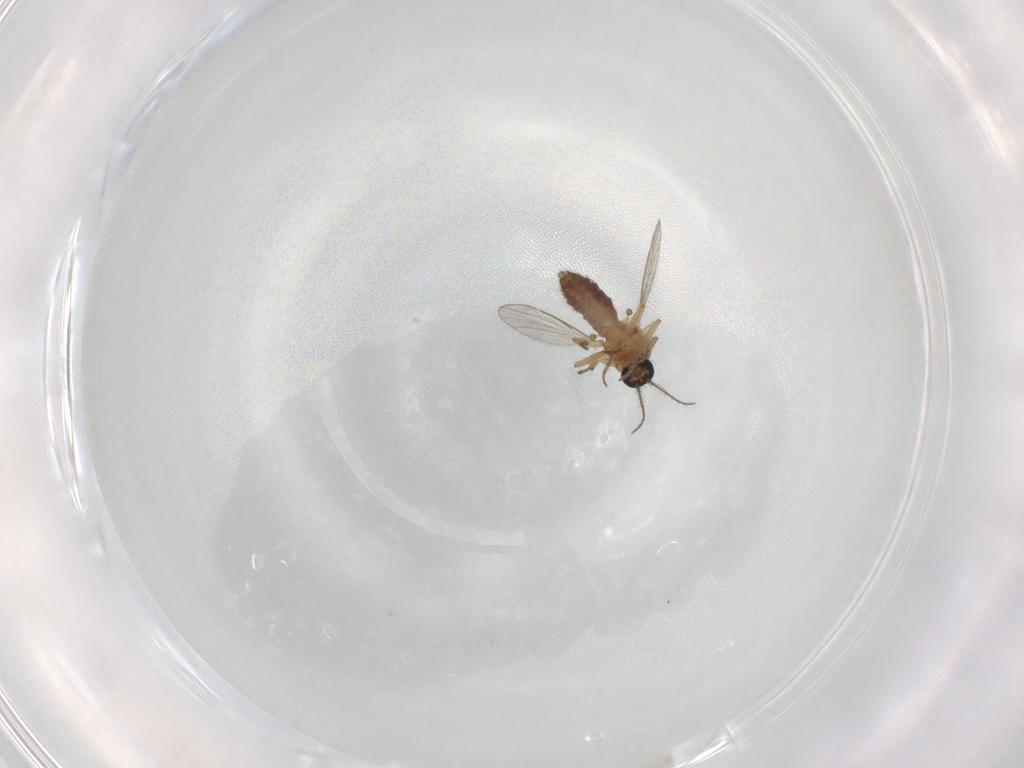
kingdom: Animalia
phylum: Arthropoda
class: Insecta
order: Diptera
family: Ceratopogonidae
